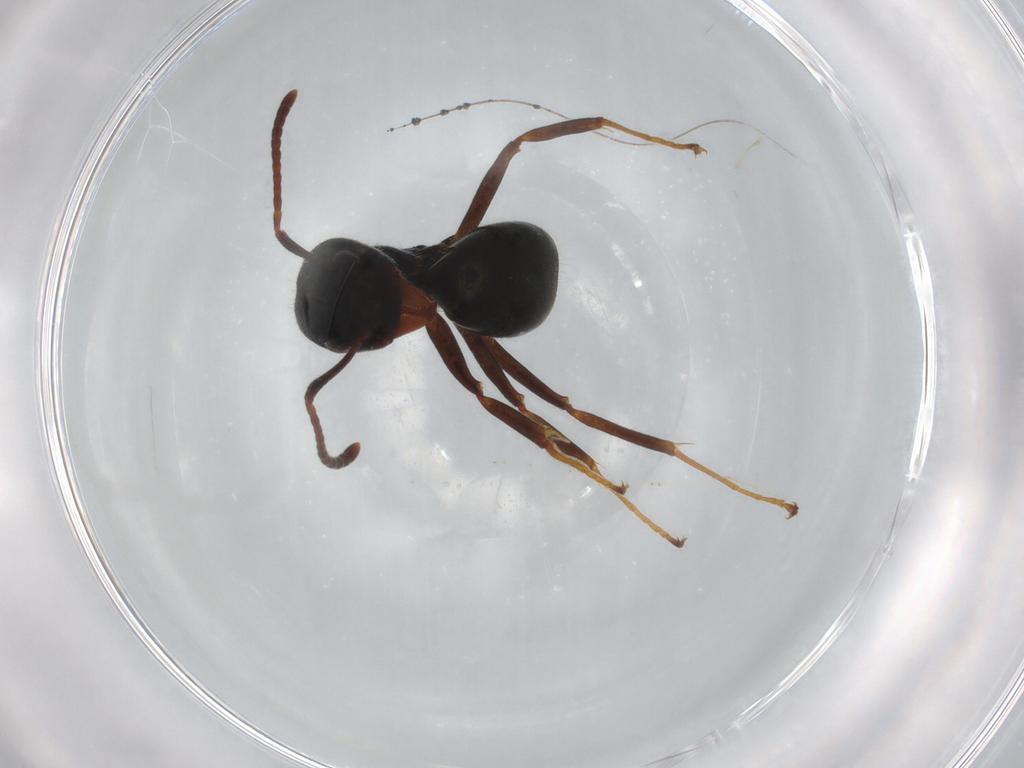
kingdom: Animalia
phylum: Arthropoda
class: Insecta
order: Hymenoptera
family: Formicidae
